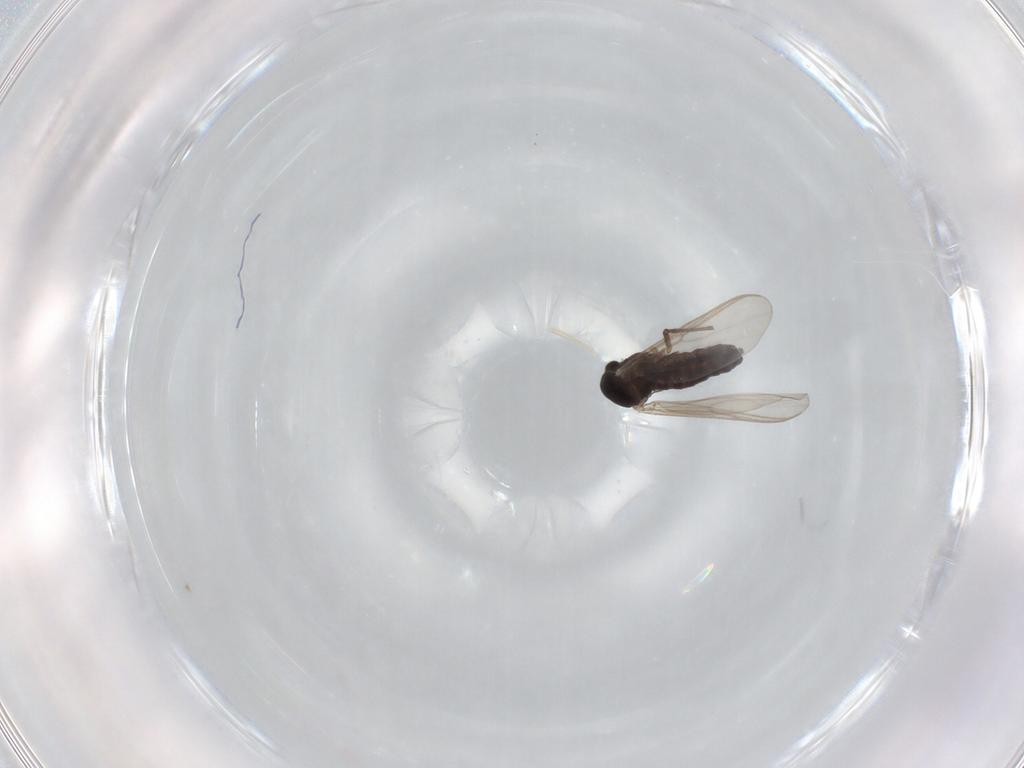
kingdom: Animalia
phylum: Arthropoda
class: Insecta
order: Diptera
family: Chironomidae
